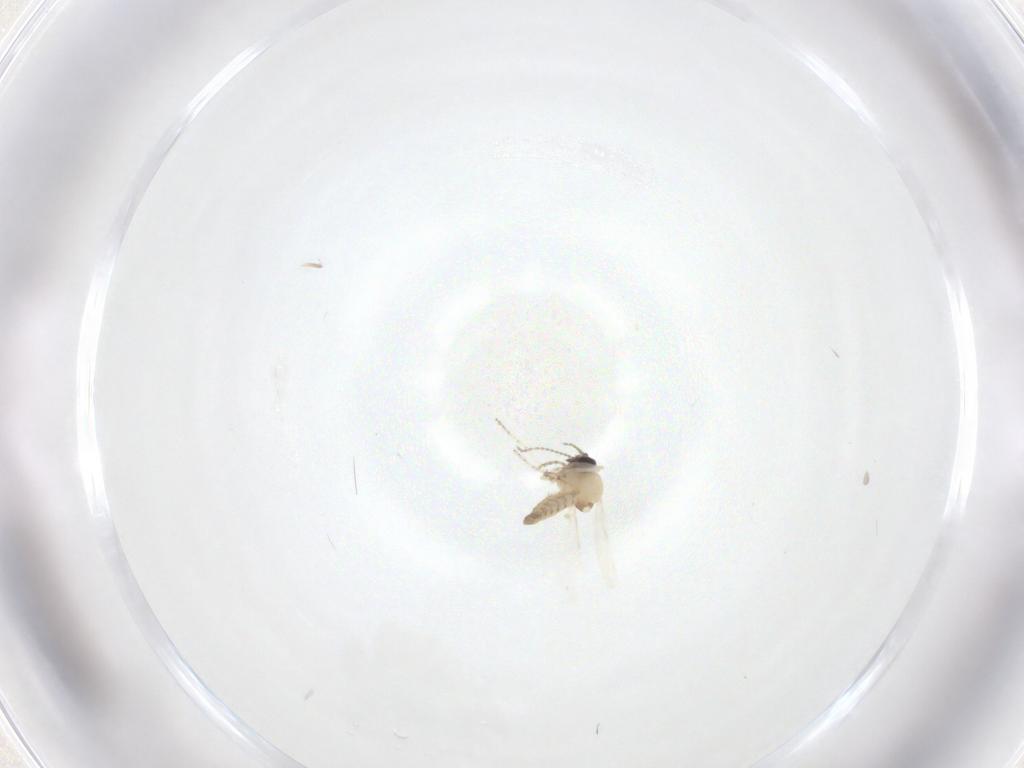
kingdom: Animalia
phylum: Arthropoda
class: Insecta
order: Diptera
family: Ceratopogonidae
